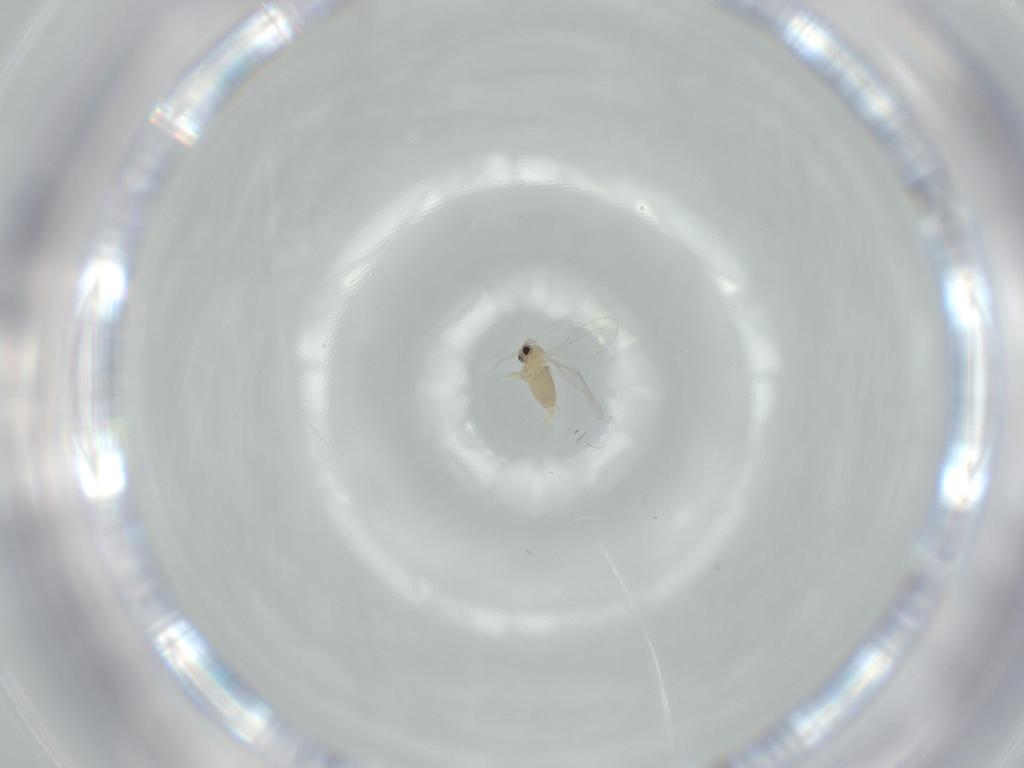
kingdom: Animalia
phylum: Arthropoda
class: Insecta
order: Diptera
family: Cecidomyiidae
